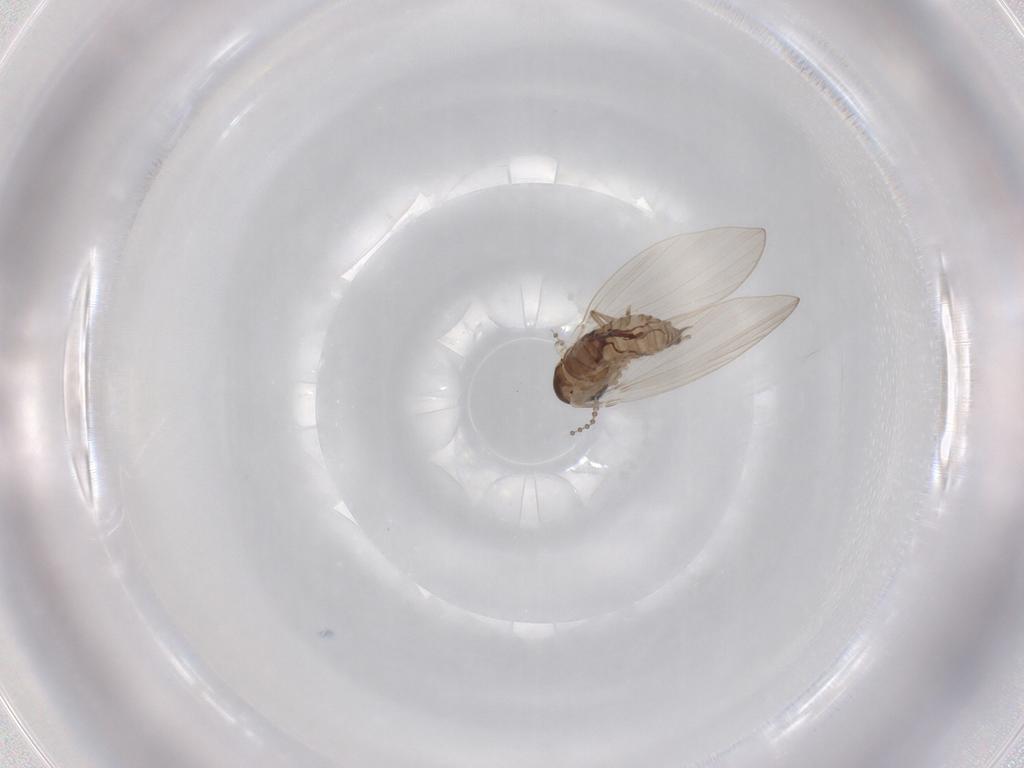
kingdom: Animalia
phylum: Arthropoda
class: Insecta
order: Diptera
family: Psychodidae
